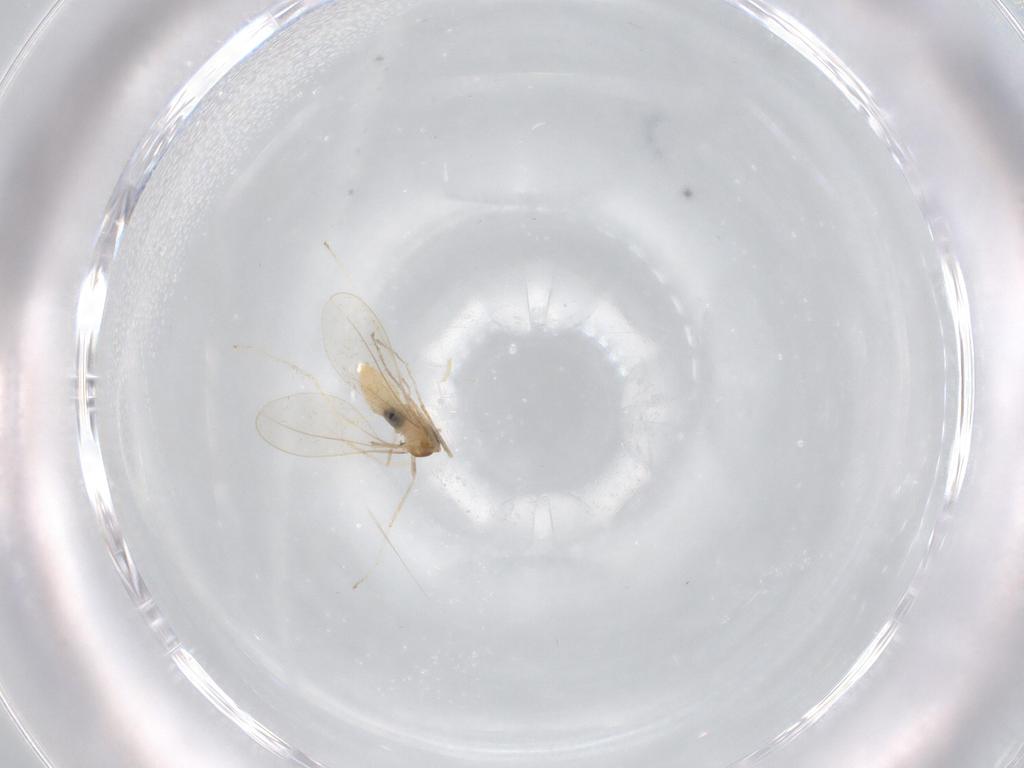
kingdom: Animalia
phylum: Arthropoda
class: Insecta
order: Diptera
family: Cecidomyiidae
